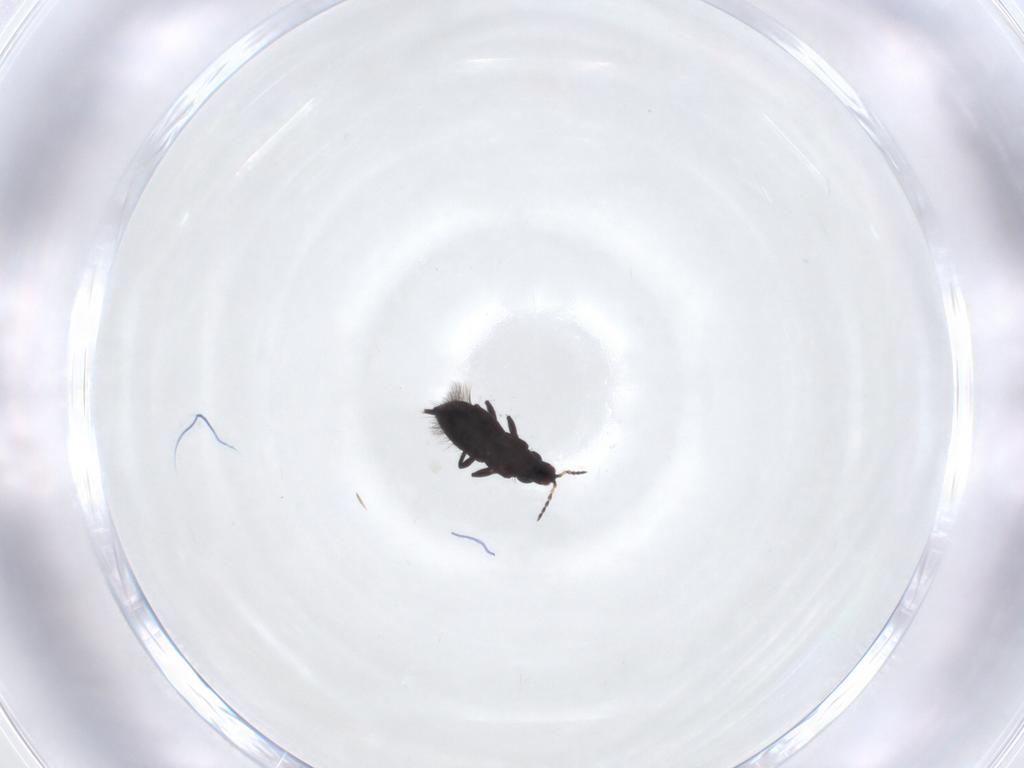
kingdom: Animalia
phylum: Arthropoda
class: Insecta
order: Thysanoptera
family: Phlaeothripidae
